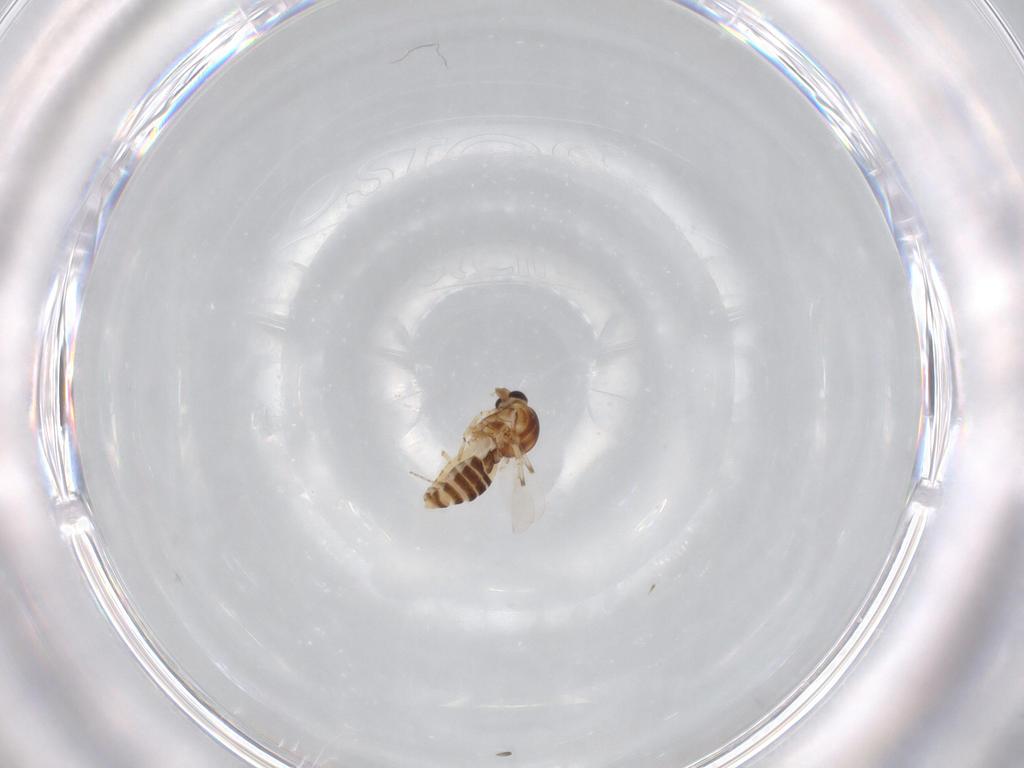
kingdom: Animalia
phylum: Arthropoda
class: Insecta
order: Diptera
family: Ceratopogonidae
